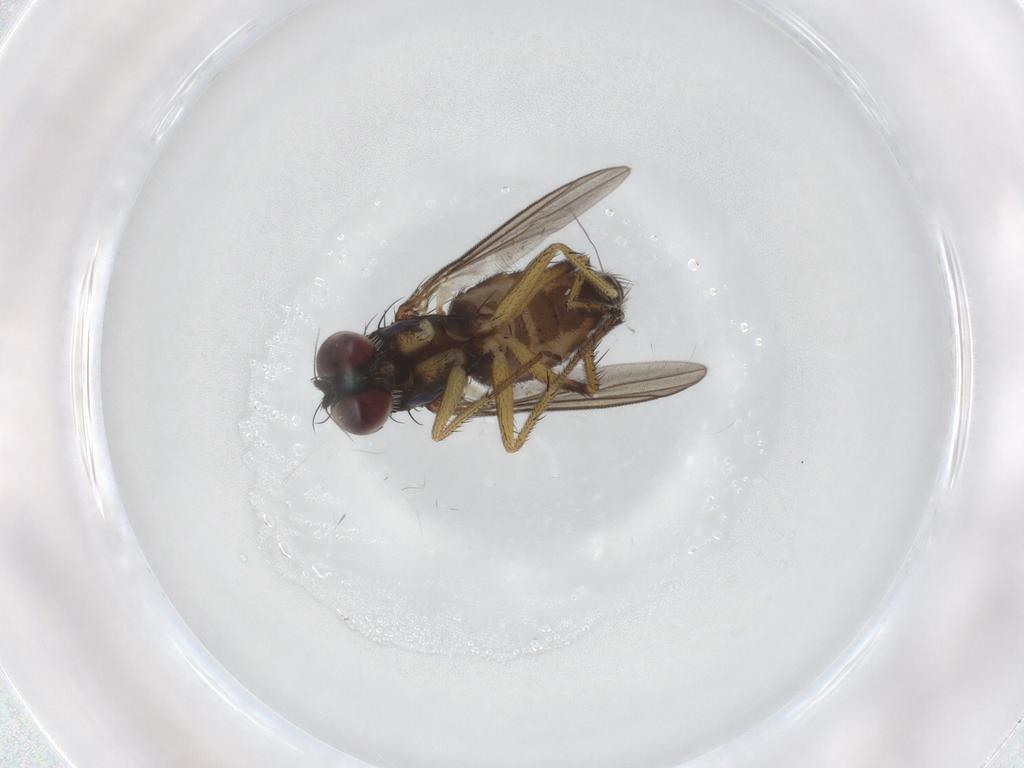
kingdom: Animalia
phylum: Arthropoda
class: Insecta
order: Diptera
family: Dolichopodidae
